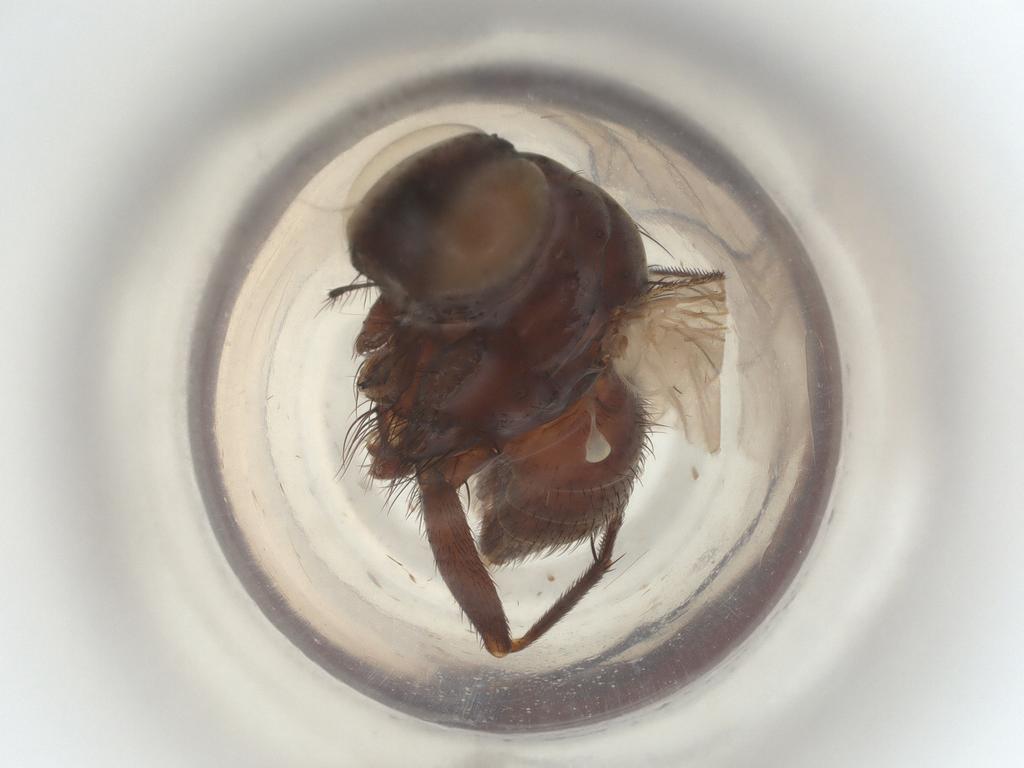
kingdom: Animalia
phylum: Arthropoda
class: Insecta
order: Hemiptera
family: Cicadellidae
